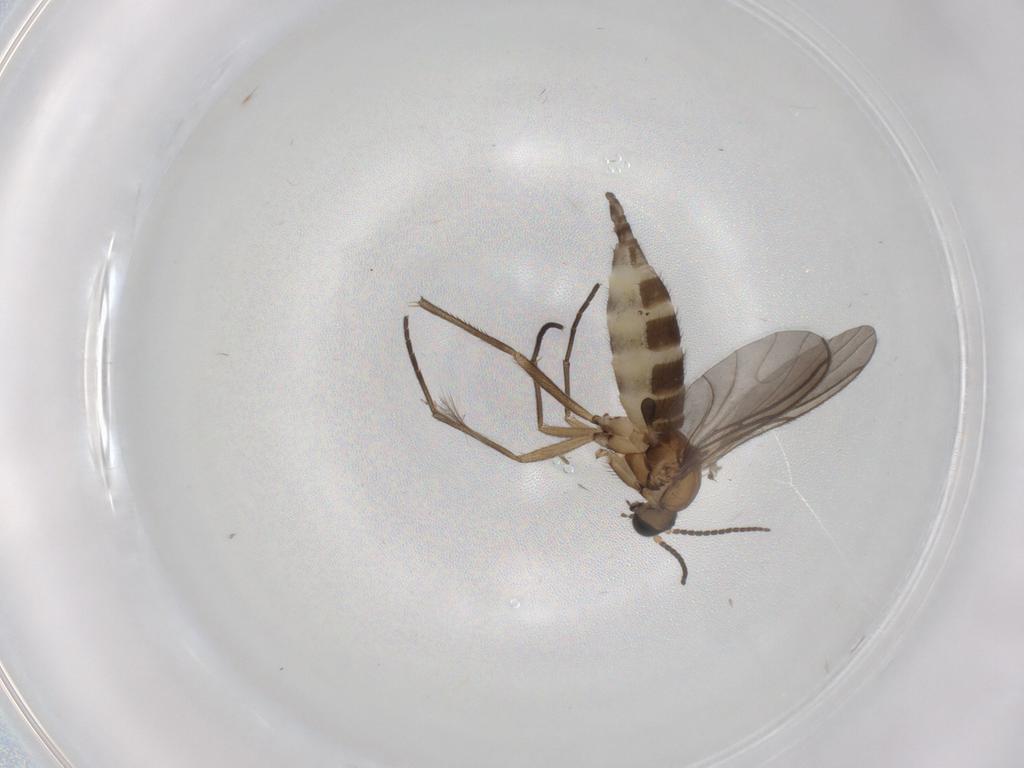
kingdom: Animalia
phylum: Arthropoda
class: Insecta
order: Diptera
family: Sciaridae
